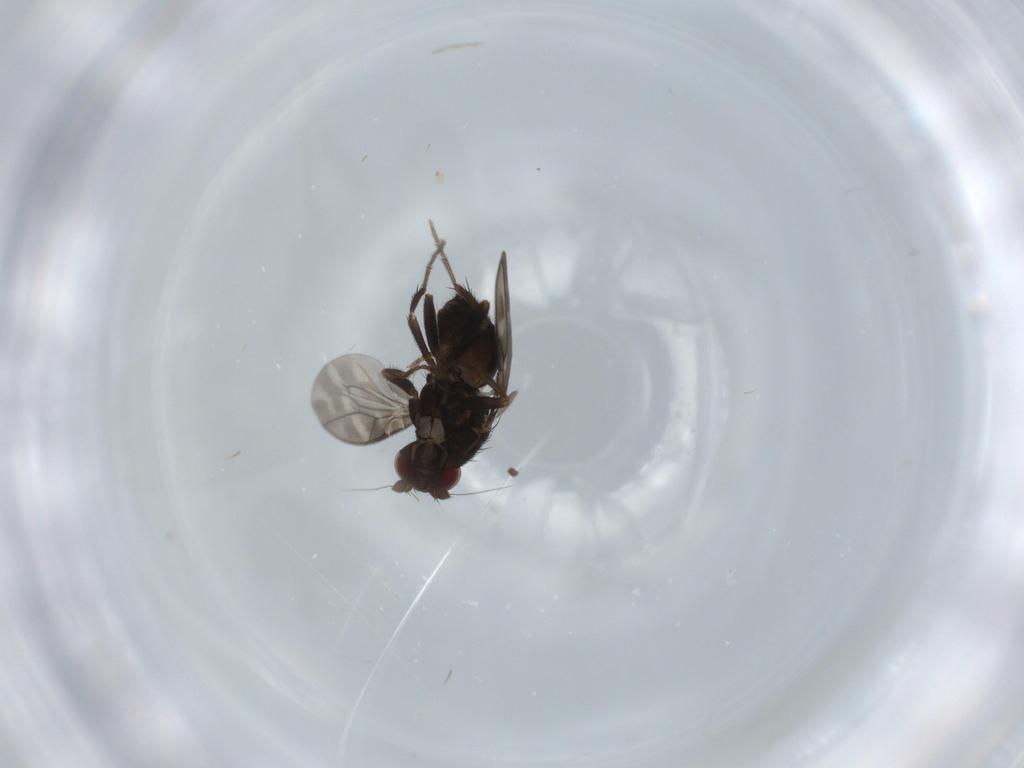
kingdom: Animalia
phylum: Arthropoda
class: Insecta
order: Diptera
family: Sphaeroceridae
